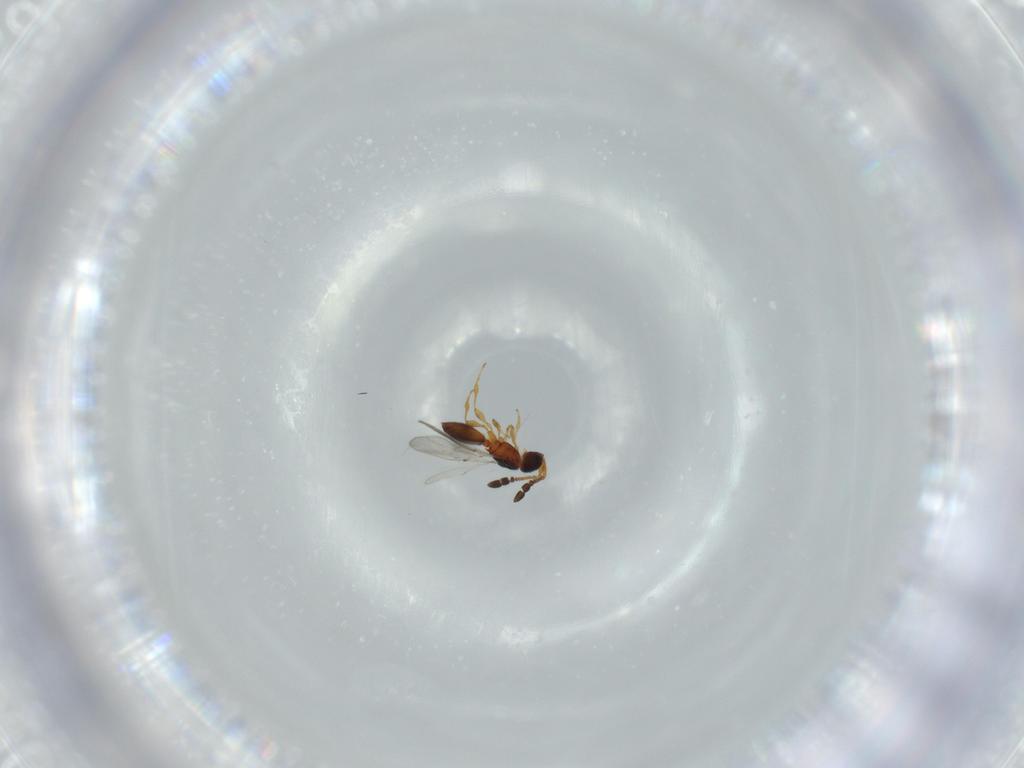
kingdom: Animalia
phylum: Arthropoda
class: Insecta
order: Hymenoptera
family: Diapriidae
